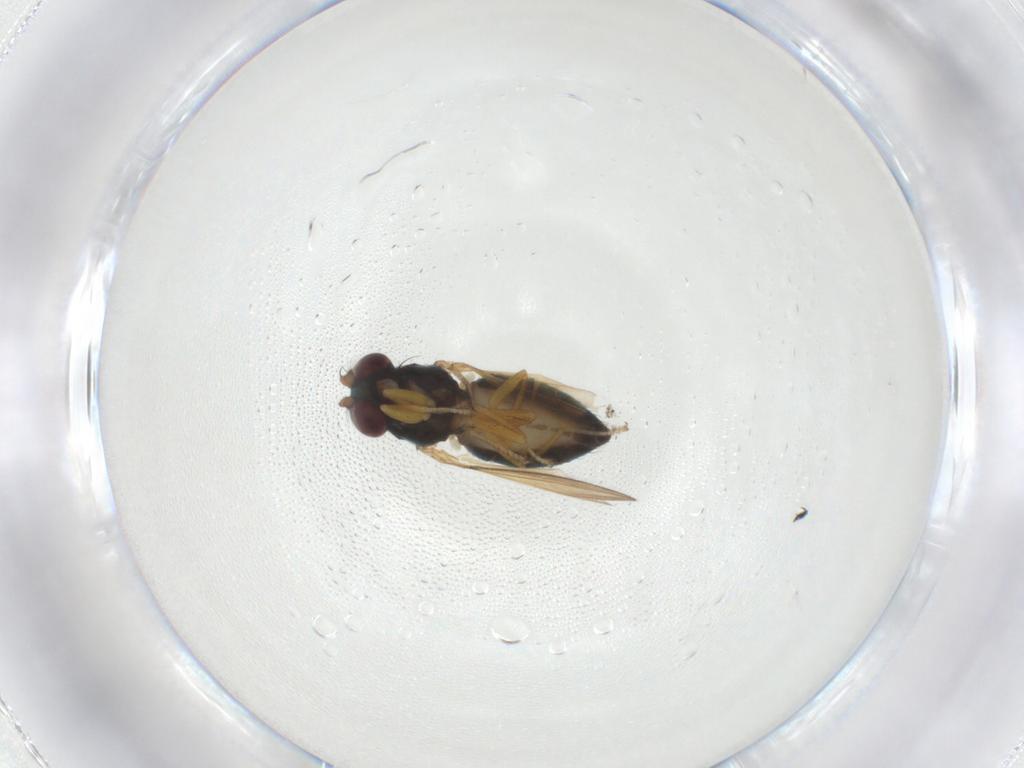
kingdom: Animalia
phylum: Arthropoda
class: Insecta
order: Diptera
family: Ephydridae
